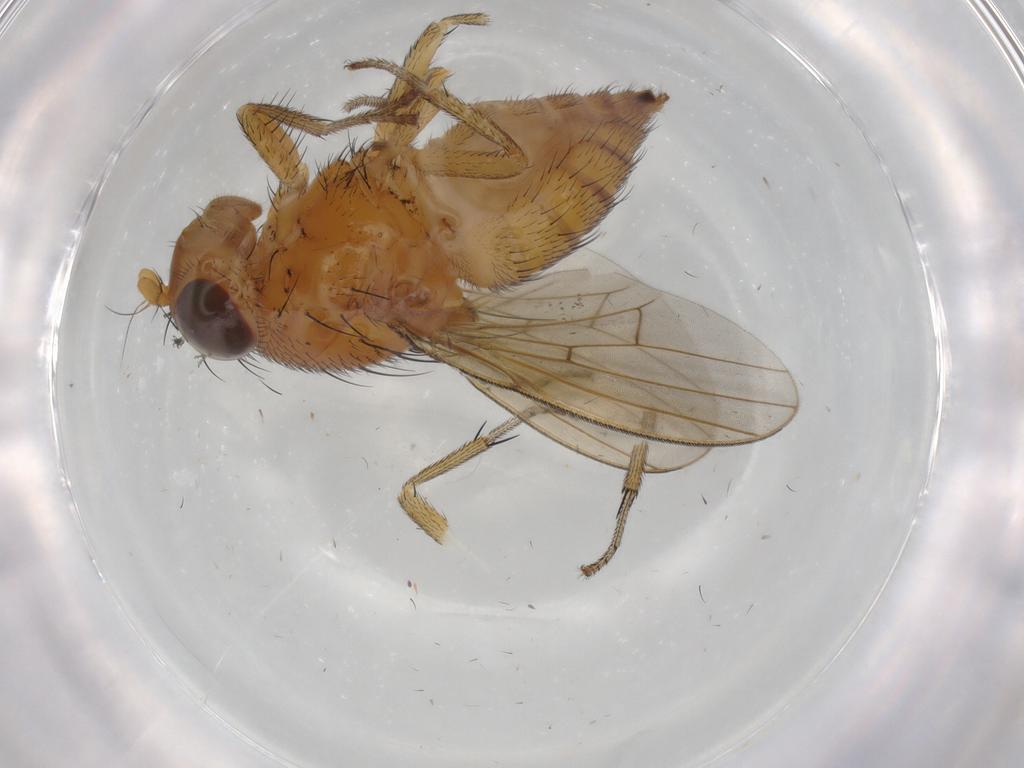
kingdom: Animalia
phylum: Arthropoda
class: Insecta
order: Diptera
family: Lauxaniidae
